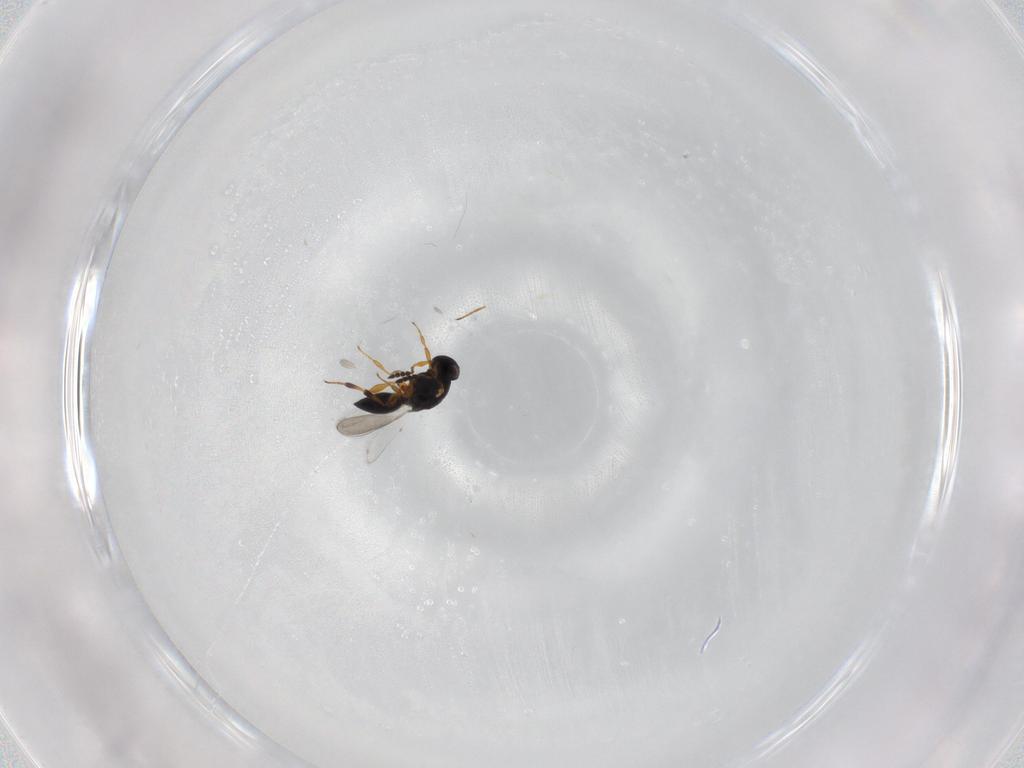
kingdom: Animalia
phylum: Arthropoda
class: Insecta
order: Hymenoptera
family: Platygastridae
